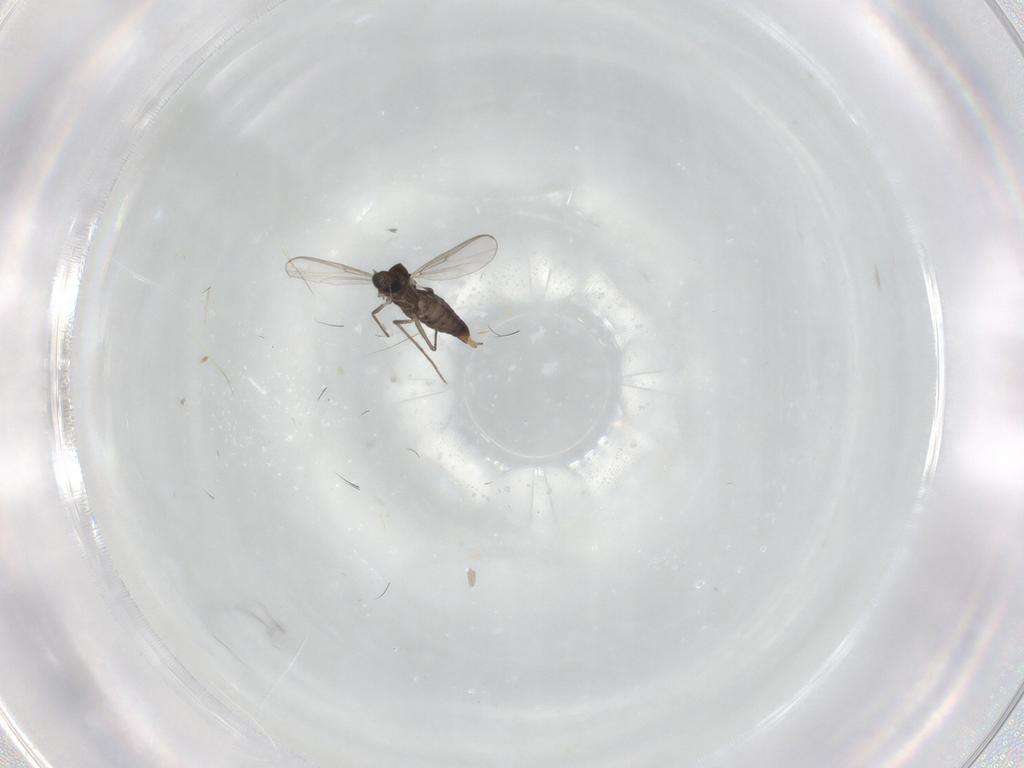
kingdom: Animalia
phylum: Arthropoda
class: Insecta
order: Diptera
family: Chironomidae
